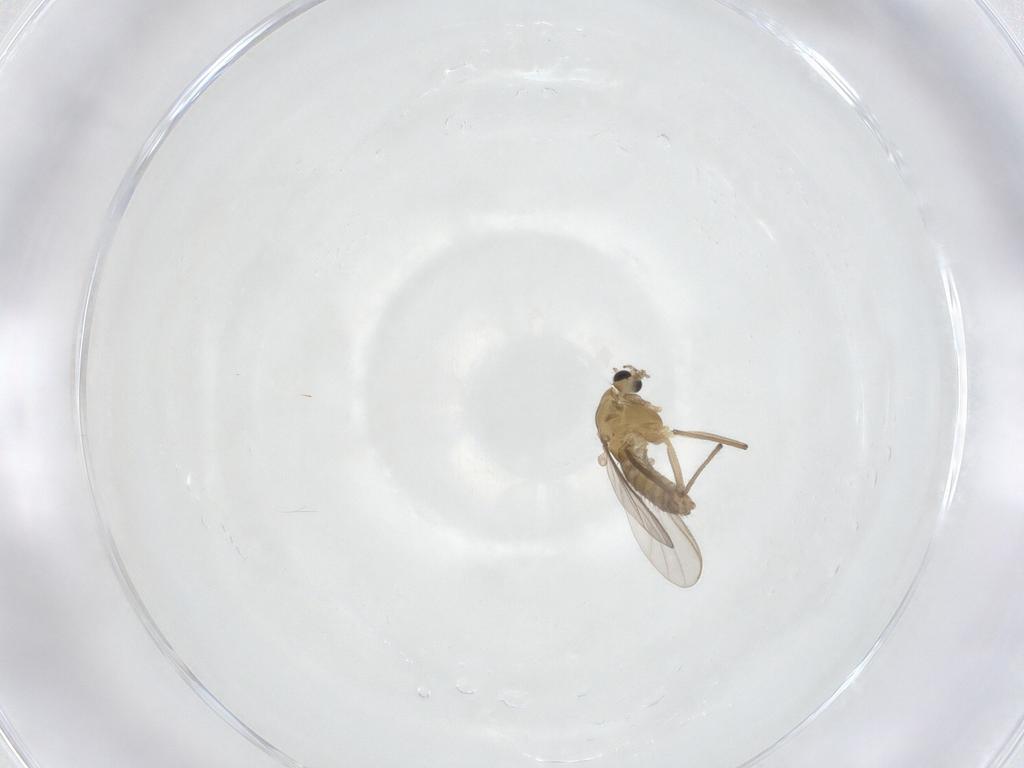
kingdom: Animalia
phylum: Arthropoda
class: Insecta
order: Diptera
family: Chironomidae
